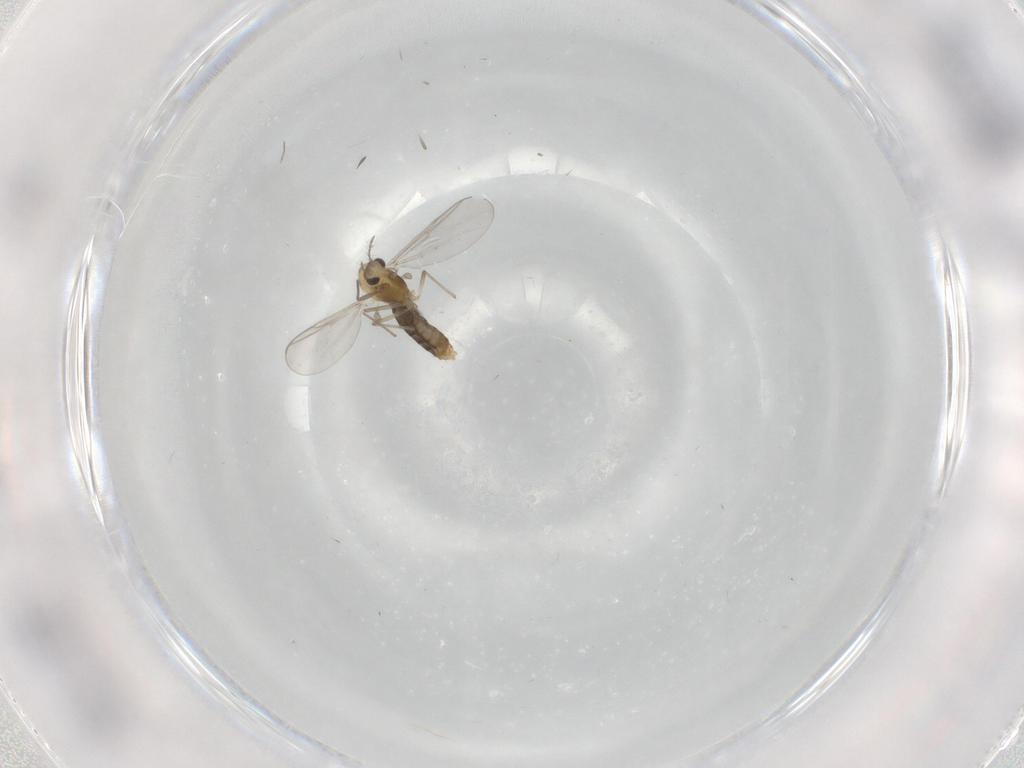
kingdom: Animalia
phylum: Arthropoda
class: Insecta
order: Diptera
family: Chironomidae
